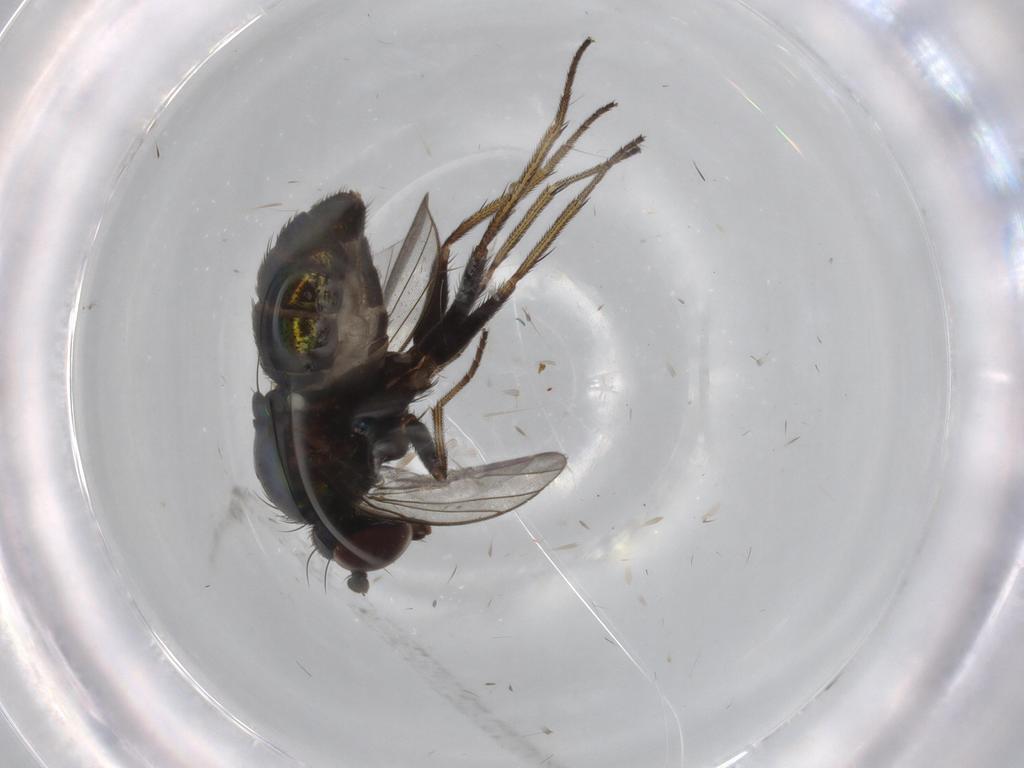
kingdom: Animalia
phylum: Arthropoda
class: Insecta
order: Diptera
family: Dolichopodidae
